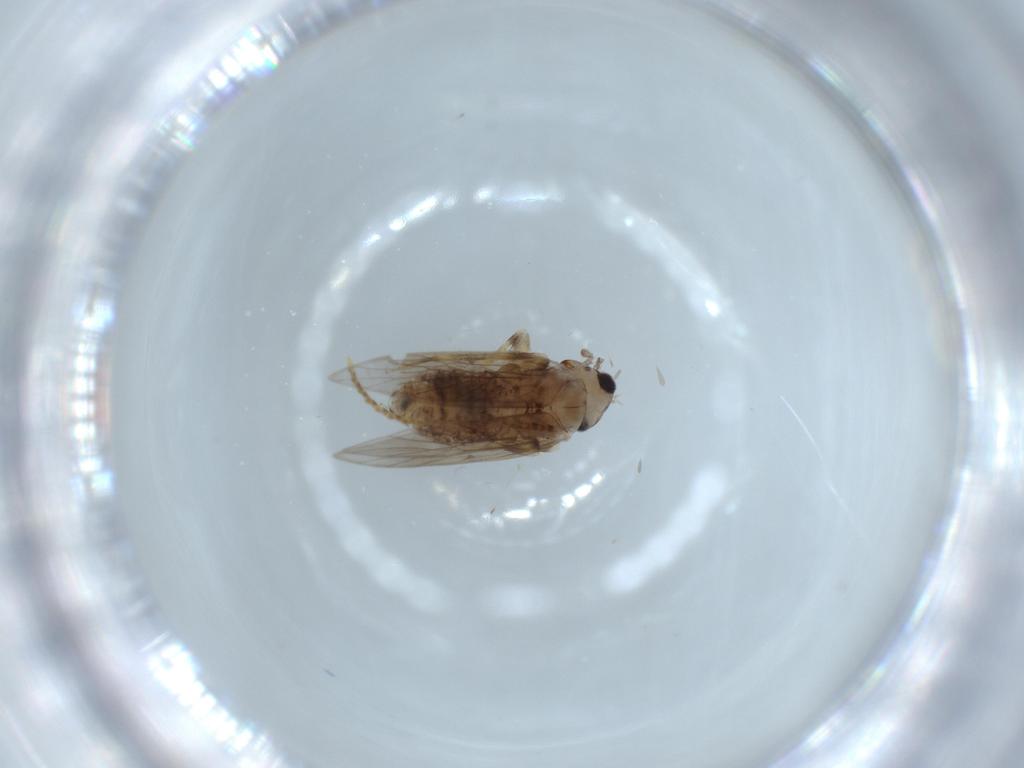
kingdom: Animalia
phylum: Arthropoda
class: Insecta
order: Psocodea
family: Lepidopsocidae
